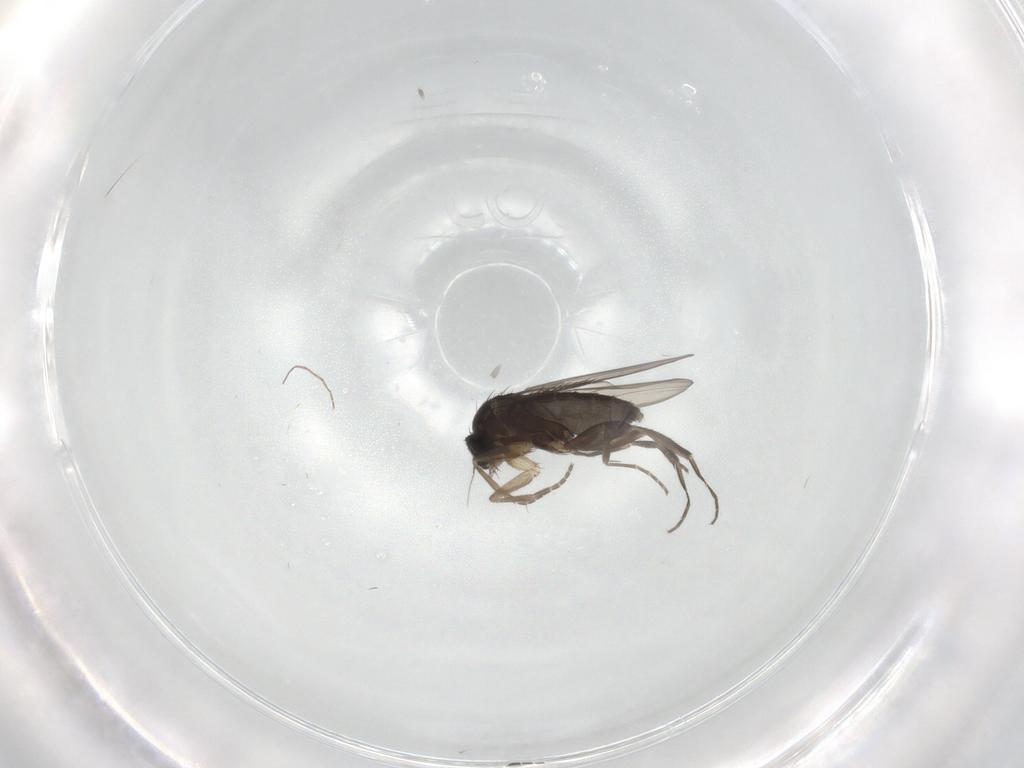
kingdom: Animalia
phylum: Arthropoda
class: Insecta
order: Diptera
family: Phoridae
